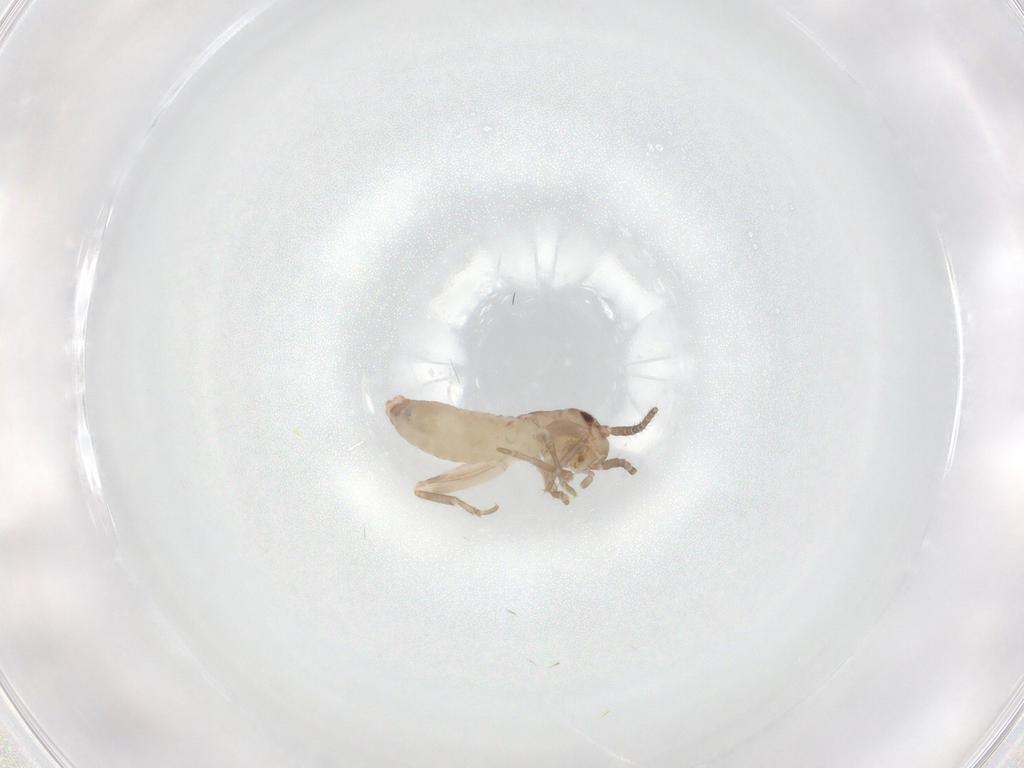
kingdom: Animalia
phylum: Arthropoda
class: Insecta
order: Orthoptera
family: Mogoplistidae
